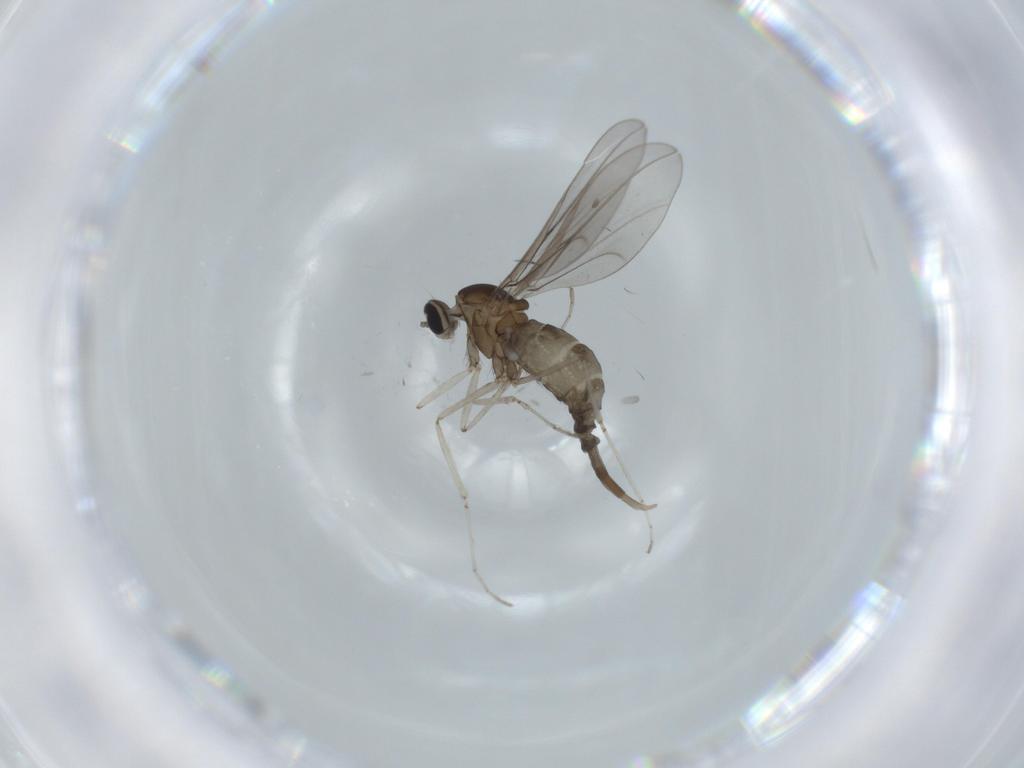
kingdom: Animalia
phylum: Arthropoda
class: Insecta
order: Diptera
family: Cecidomyiidae
